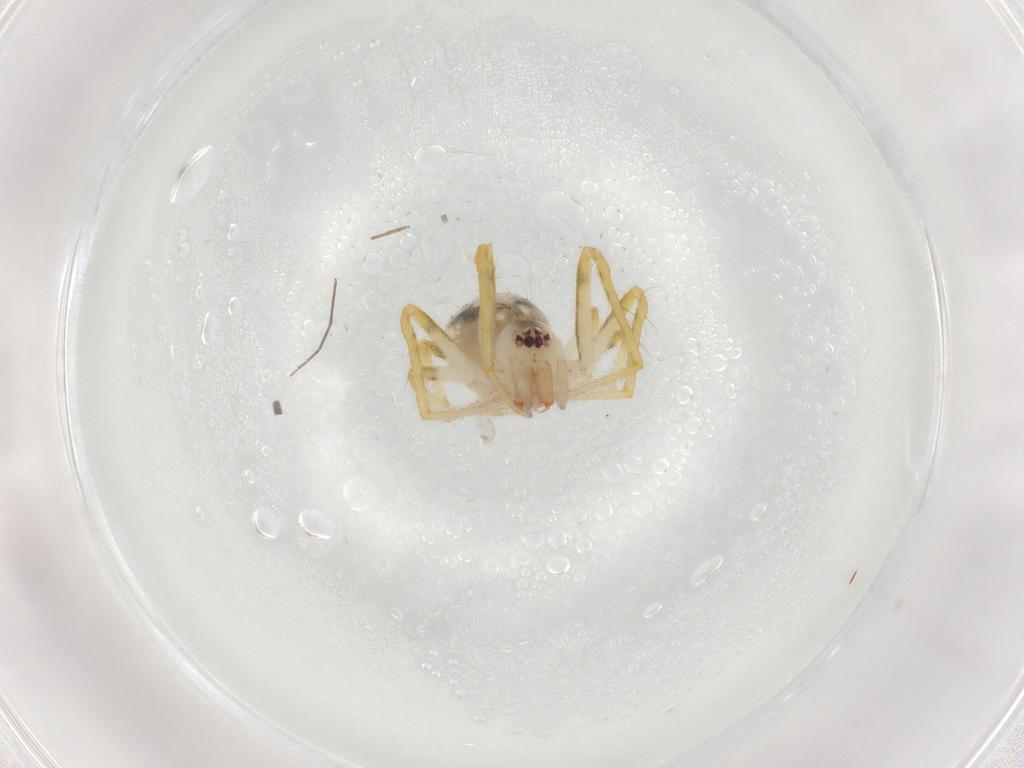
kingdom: Animalia
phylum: Arthropoda
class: Arachnida
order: Araneae
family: Theridiidae
